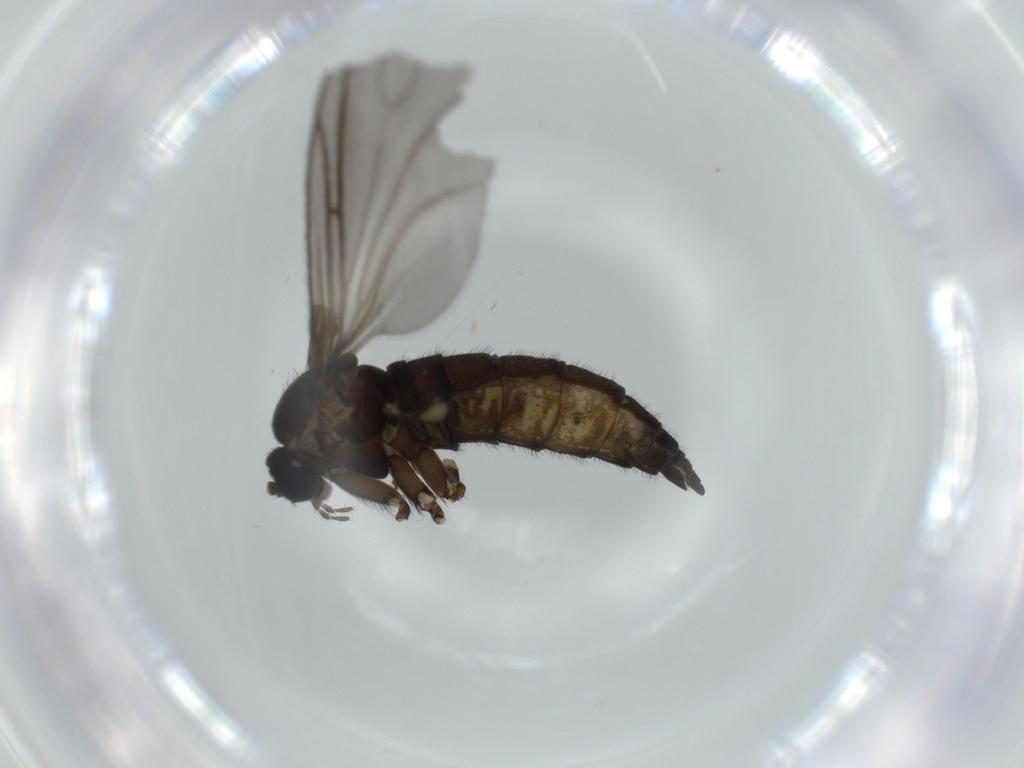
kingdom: Animalia
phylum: Arthropoda
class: Insecta
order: Diptera
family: Sciaridae
